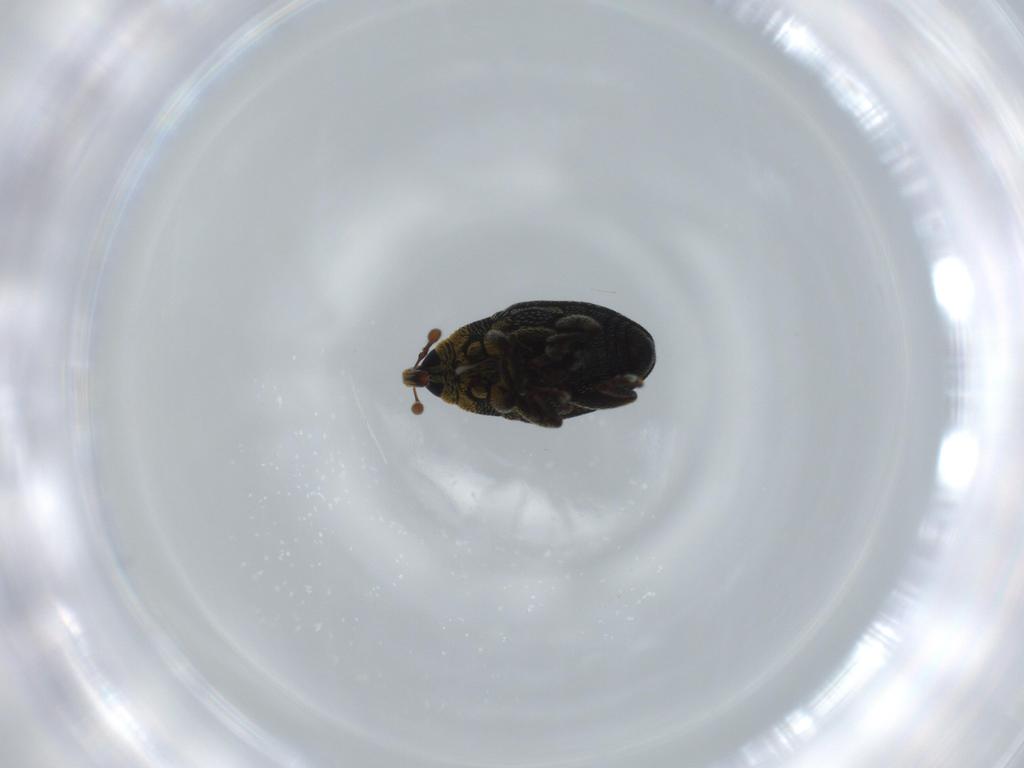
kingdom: Animalia
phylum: Arthropoda
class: Insecta
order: Coleoptera
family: Curculionidae
